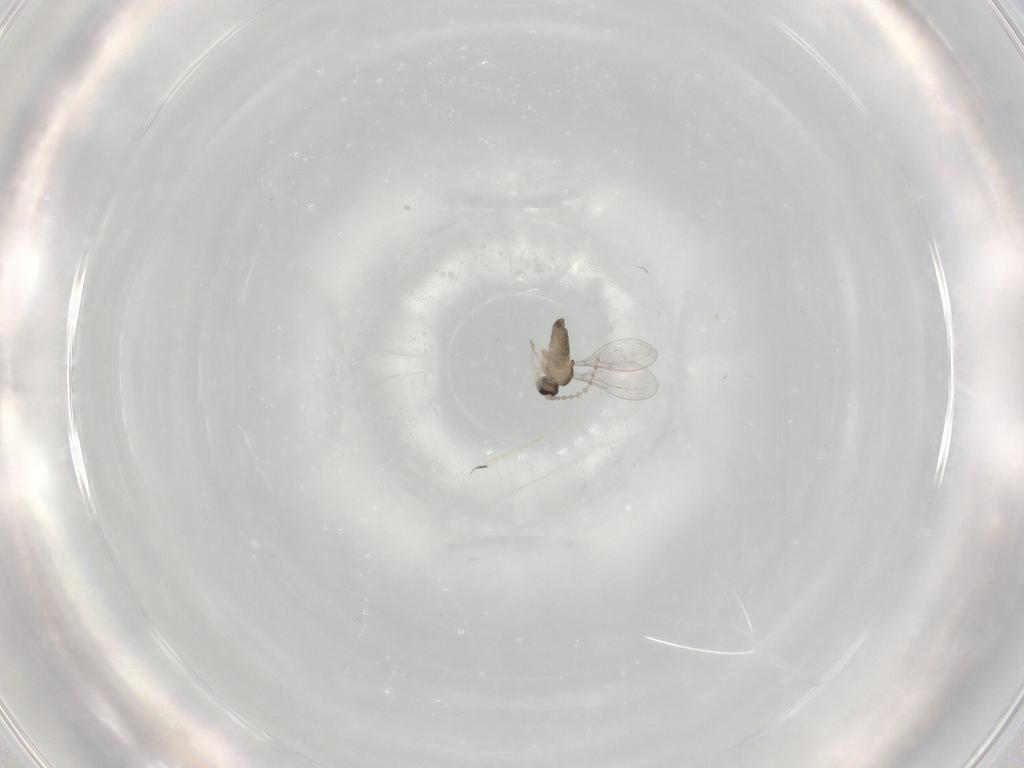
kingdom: Animalia
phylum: Arthropoda
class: Insecta
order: Diptera
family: Cecidomyiidae
